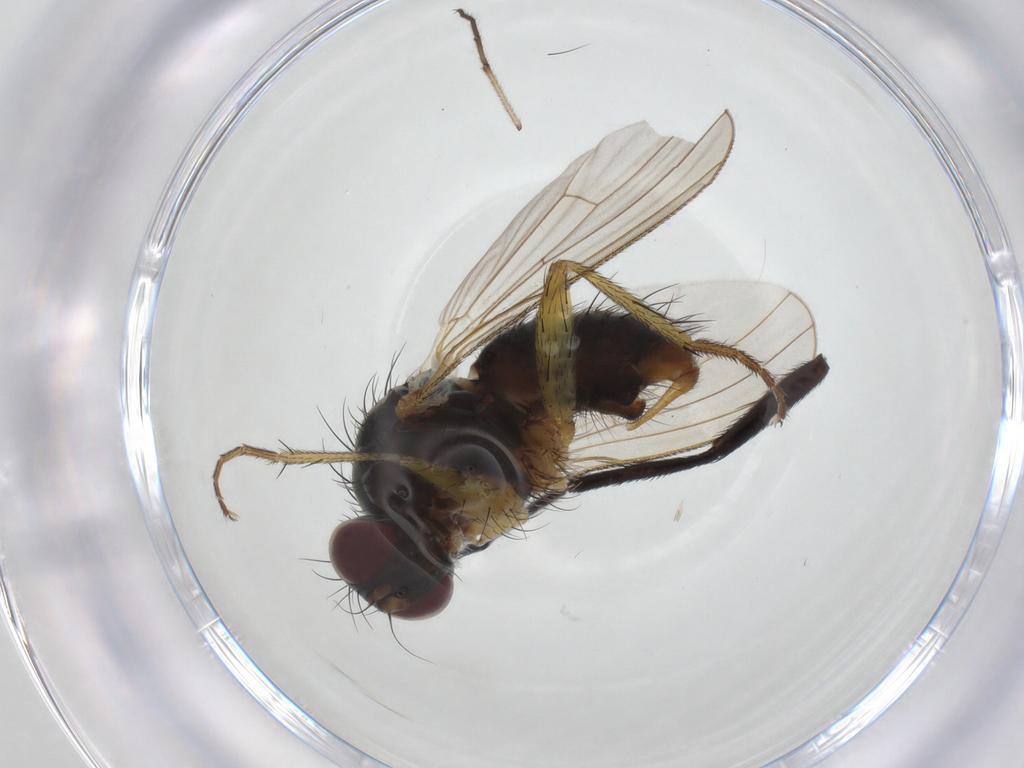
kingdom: Animalia
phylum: Arthropoda
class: Insecta
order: Diptera
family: Muscidae
